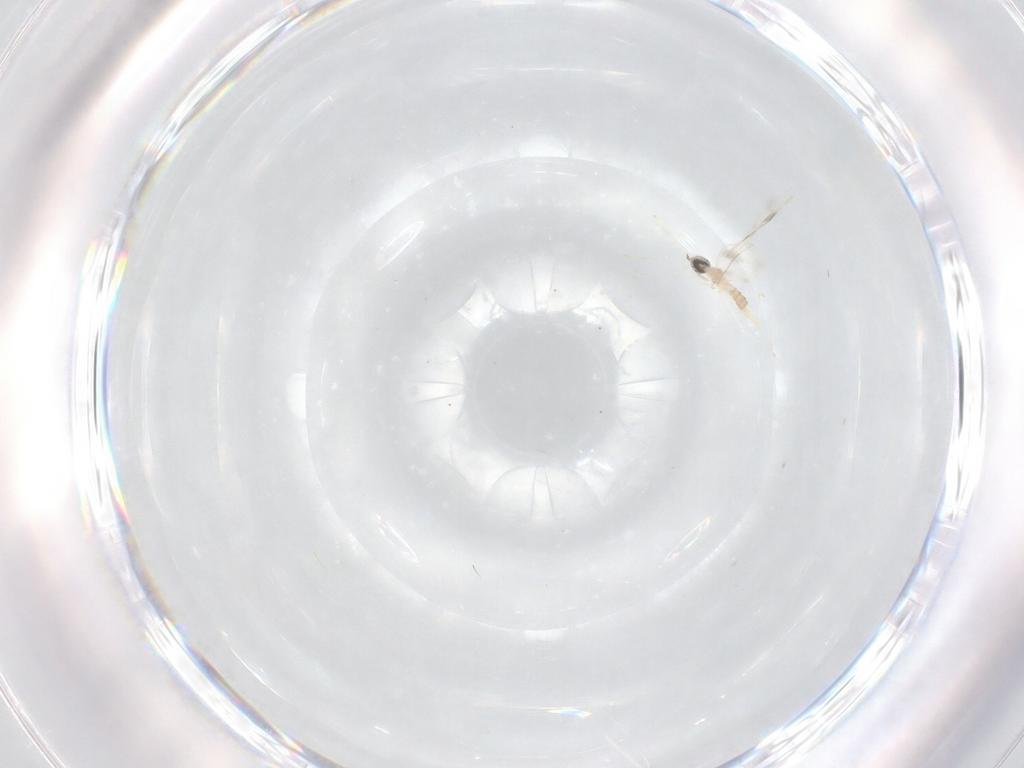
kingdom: Animalia
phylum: Arthropoda
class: Insecta
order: Diptera
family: Cecidomyiidae
